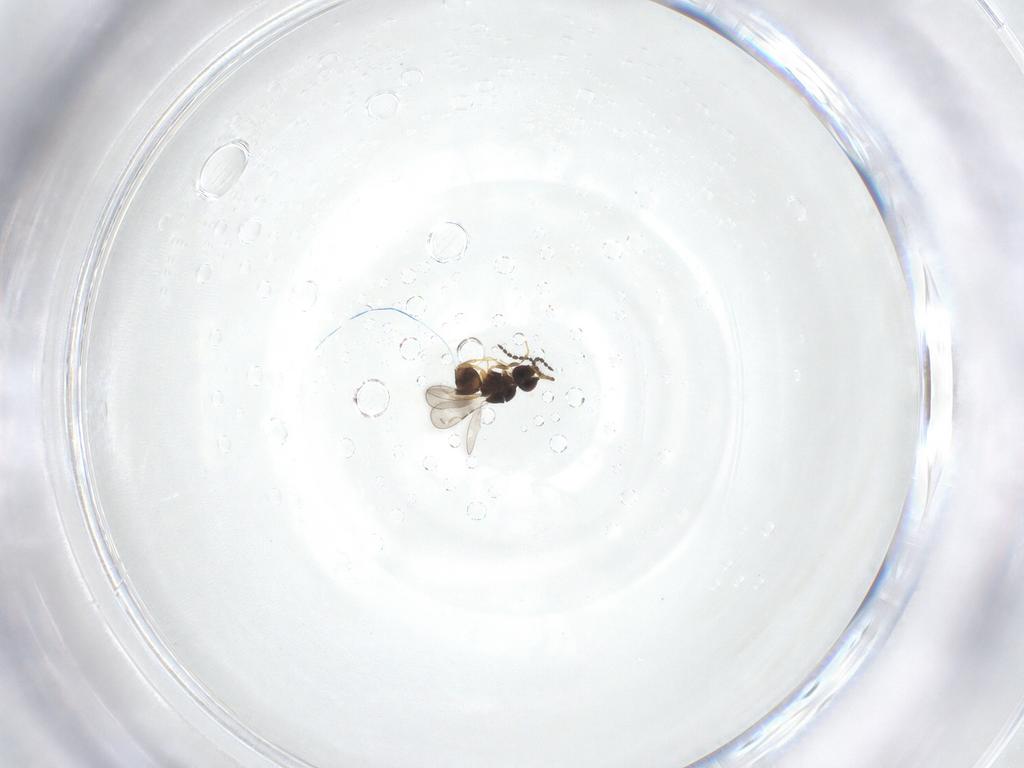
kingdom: Animalia
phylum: Arthropoda
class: Insecta
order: Hymenoptera
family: Ceraphronidae
